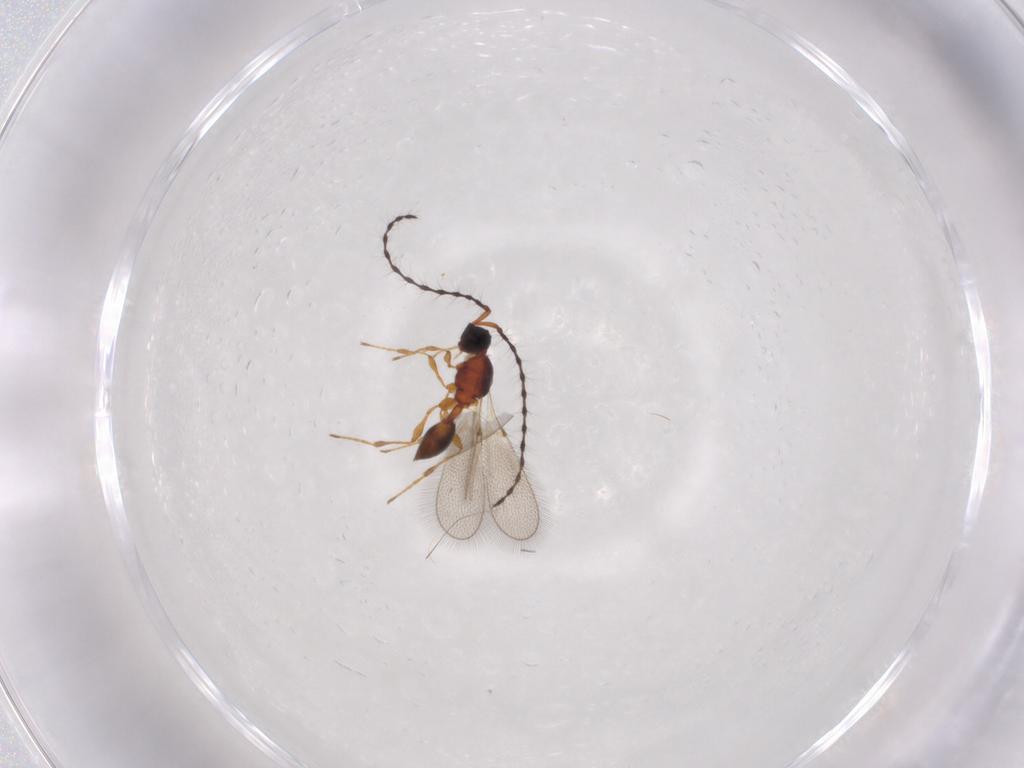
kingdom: Animalia
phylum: Arthropoda
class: Insecta
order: Hymenoptera
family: Diapriidae
